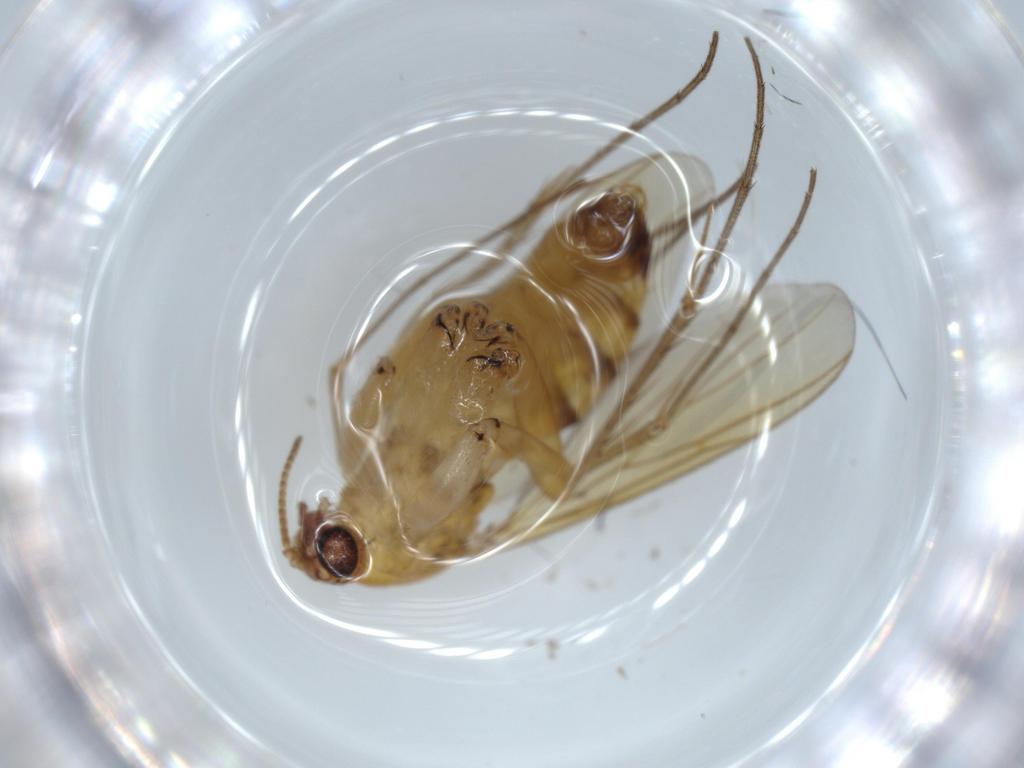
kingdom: Animalia
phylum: Arthropoda
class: Insecta
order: Diptera
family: Mycetophilidae
